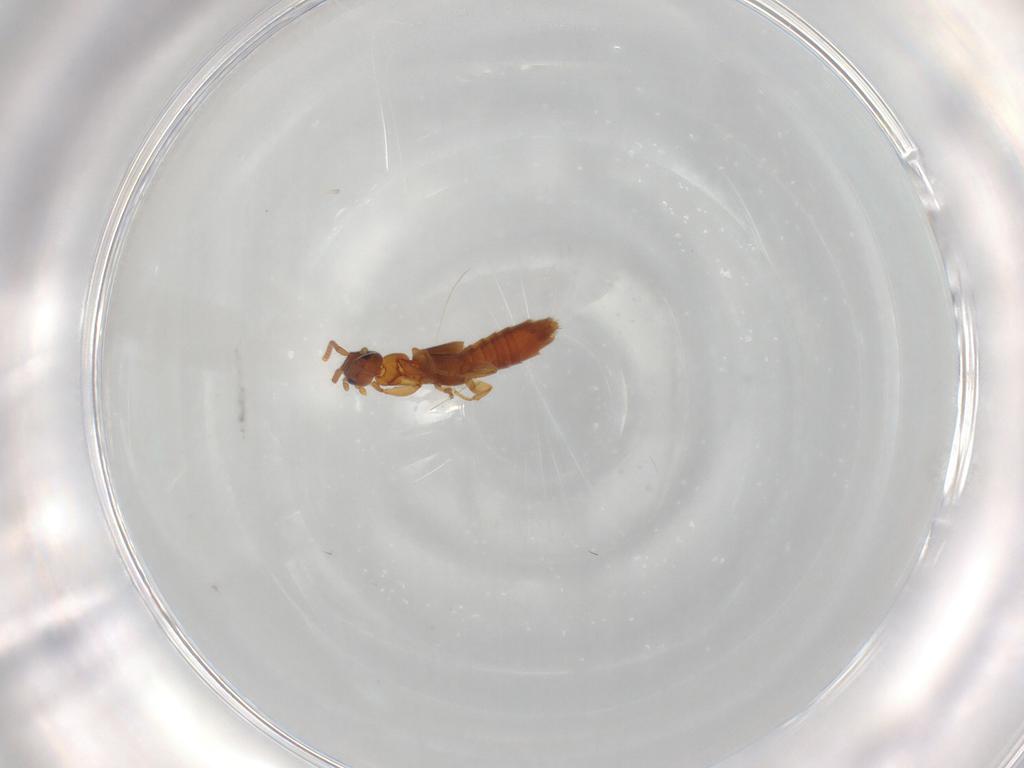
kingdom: Animalia
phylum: Arthropoda
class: Insecta
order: Coleoptera
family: Staphylinidae
